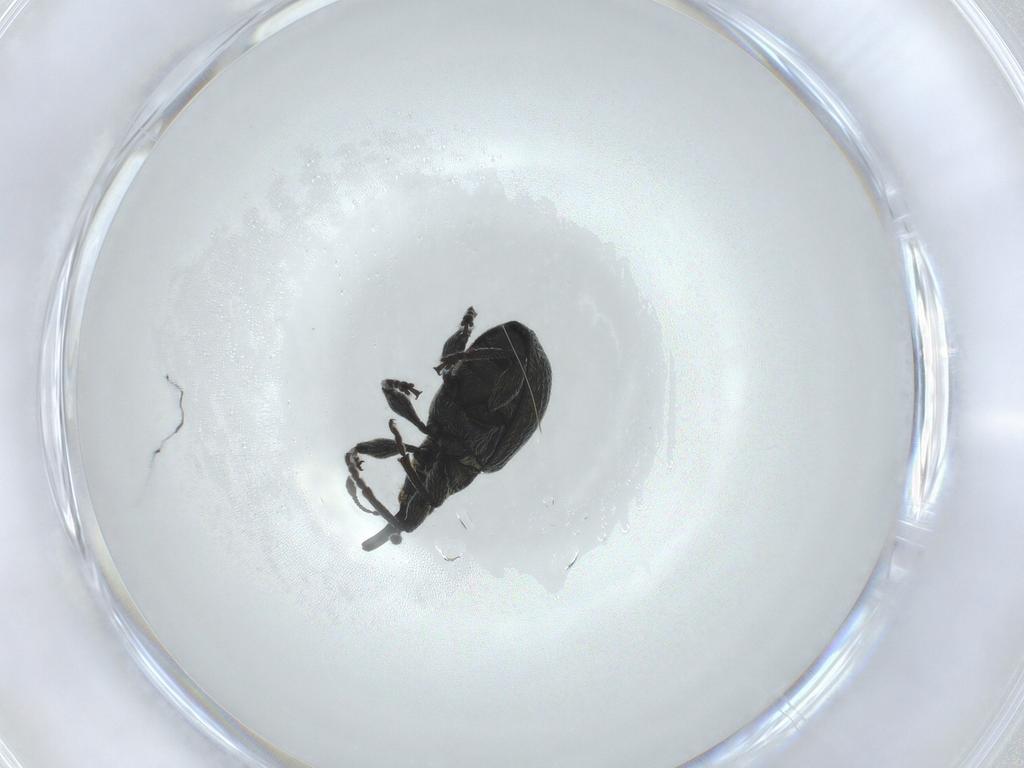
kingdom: Animalia
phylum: Arthropoda
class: Insecta
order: Coleoptera
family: Brentidae
